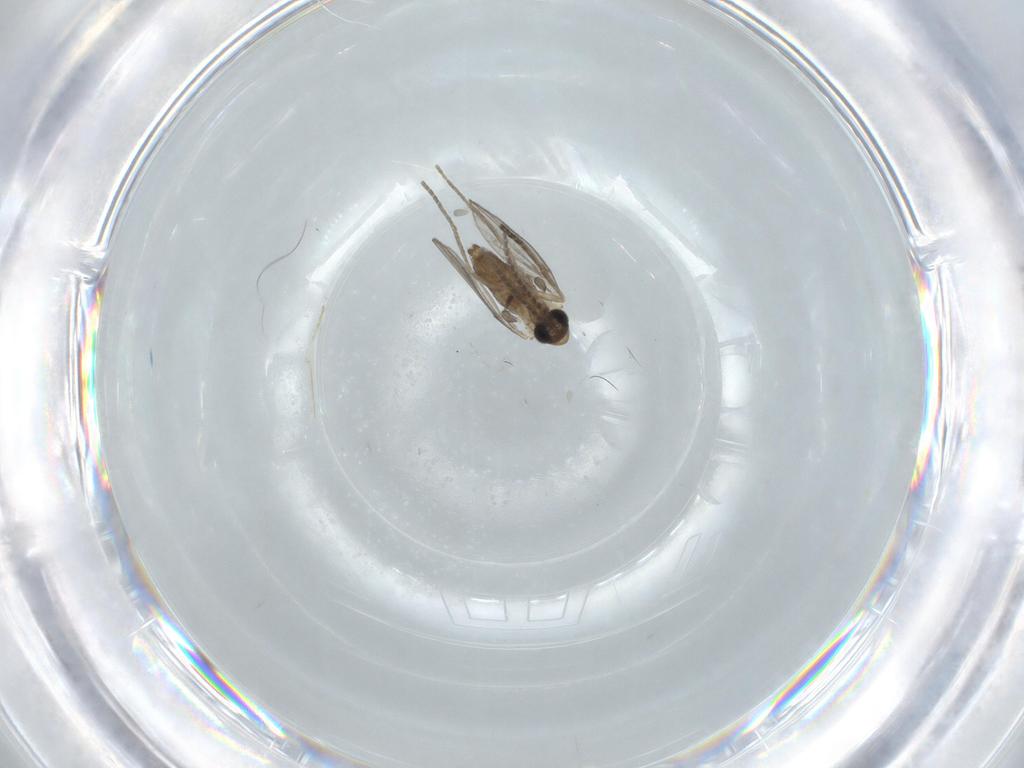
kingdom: Animalia
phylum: Arthropoda
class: Insecta
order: Diptera
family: Psychodidae
